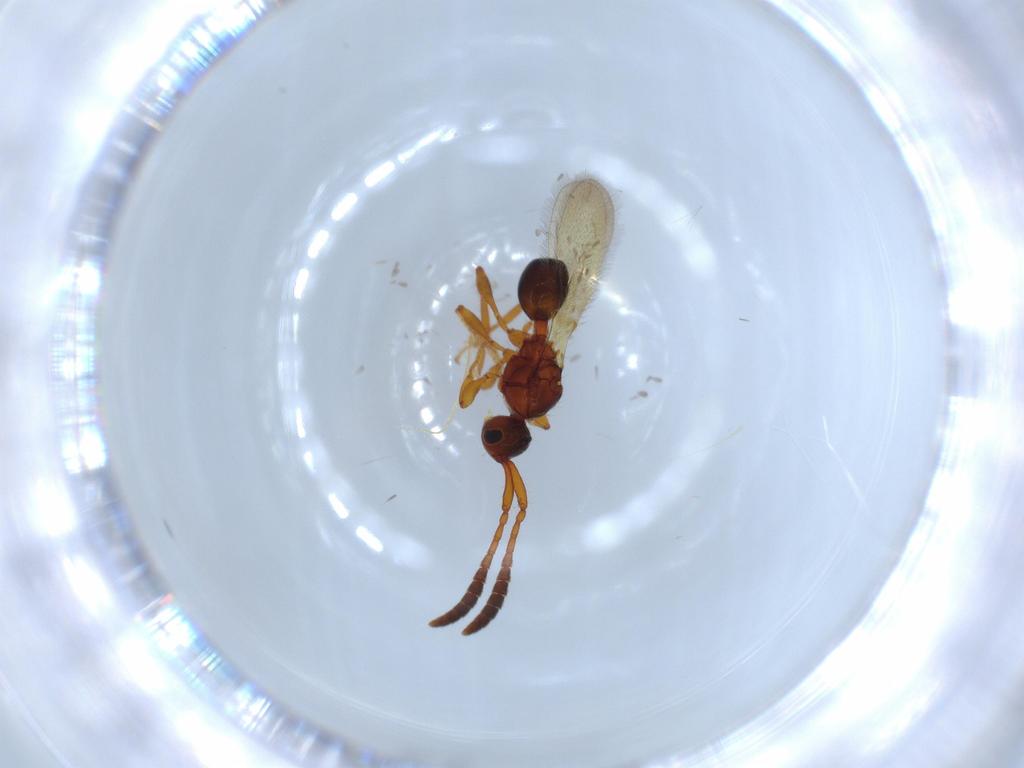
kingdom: Animalia
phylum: Arthropoda
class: Insecta
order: Hymenoptera
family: Diapriidae
